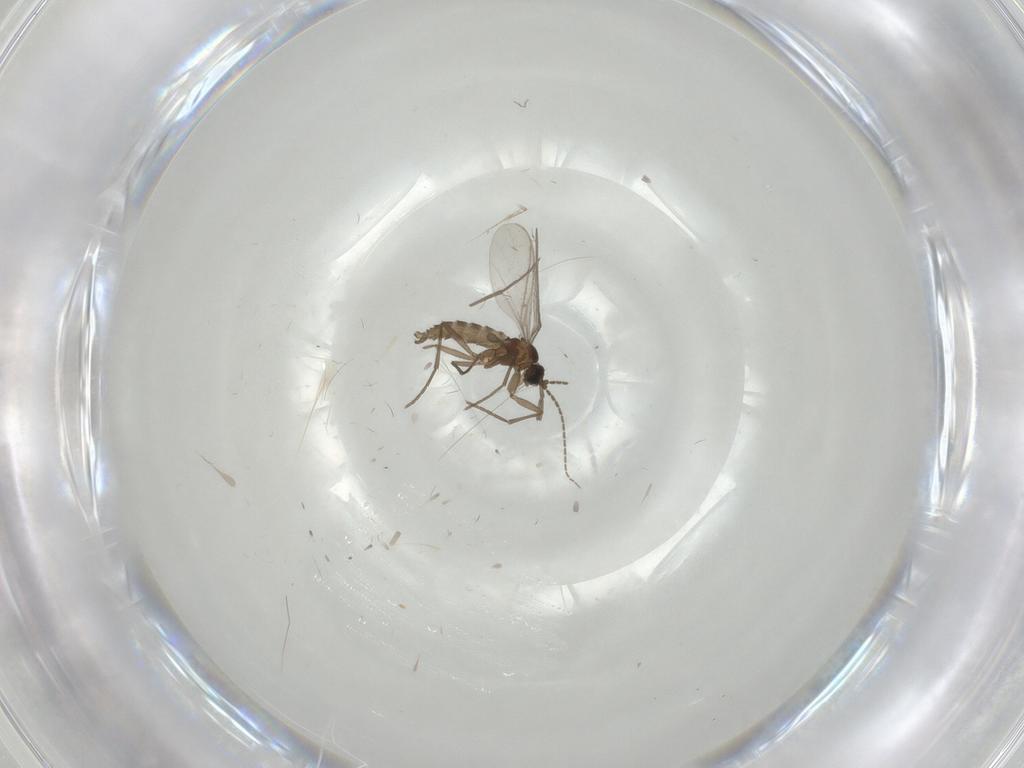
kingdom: Animalia
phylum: Arthropoda
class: Insecta
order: Diptera
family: Sciaridae
